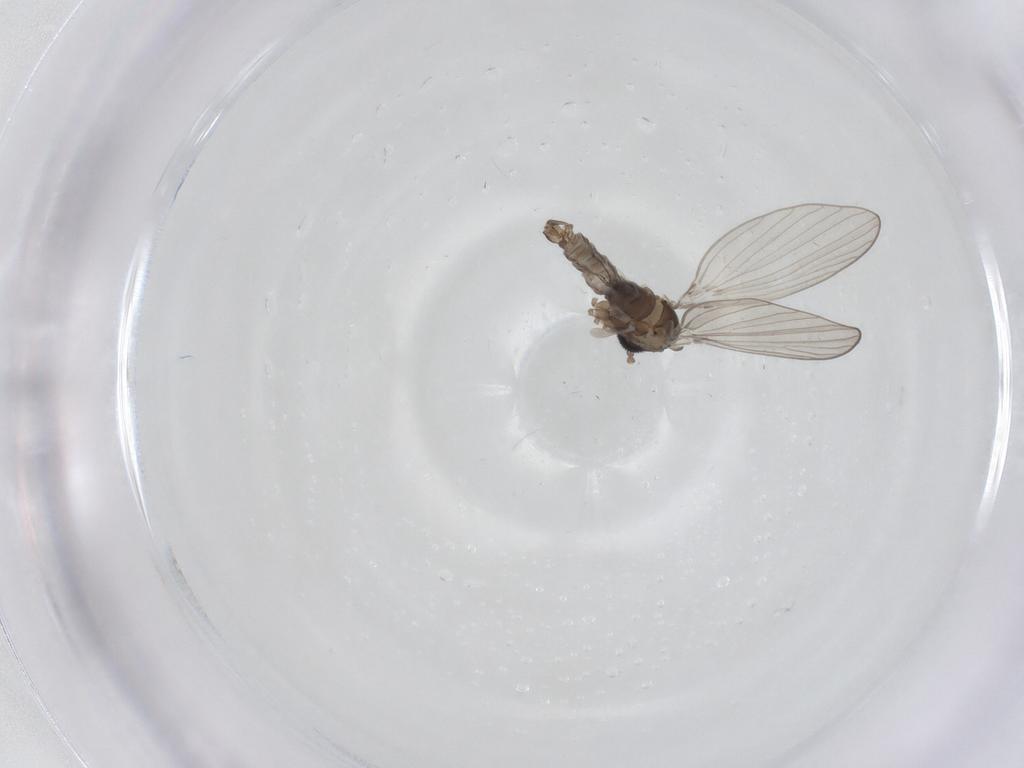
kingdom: Animalia
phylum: Arthropoda
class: Insecta
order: Diptera
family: Psychodidae
